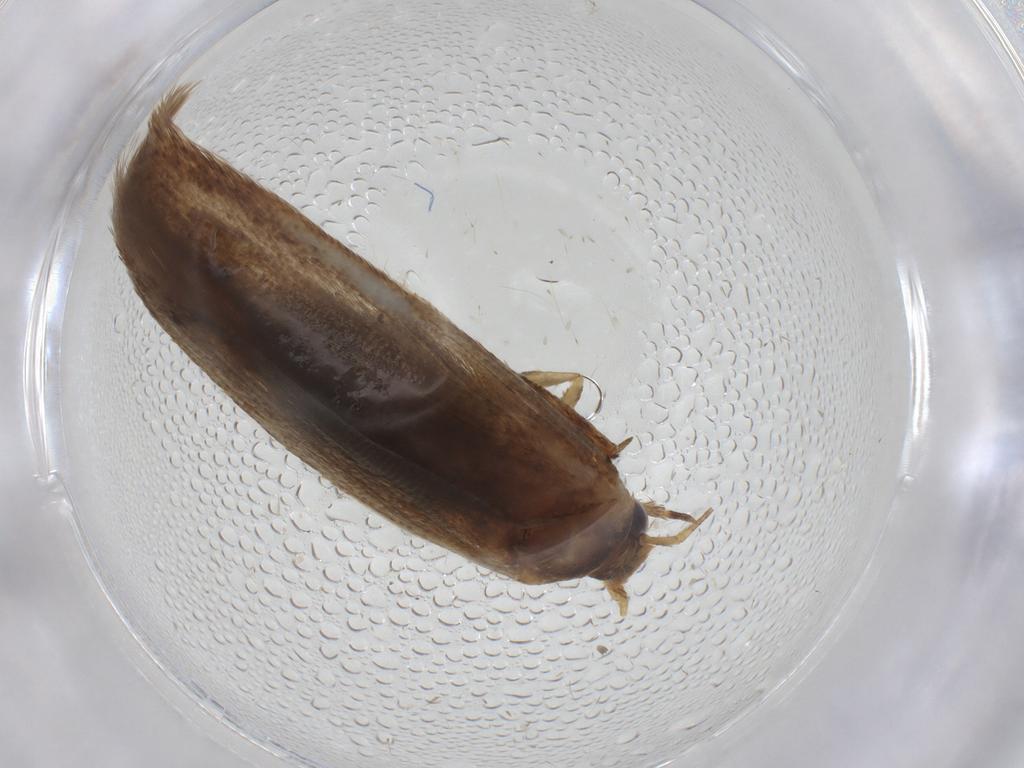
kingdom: Animalia
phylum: Arthropoda
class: Insecta
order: Lepidoptera
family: Blastobasidae
